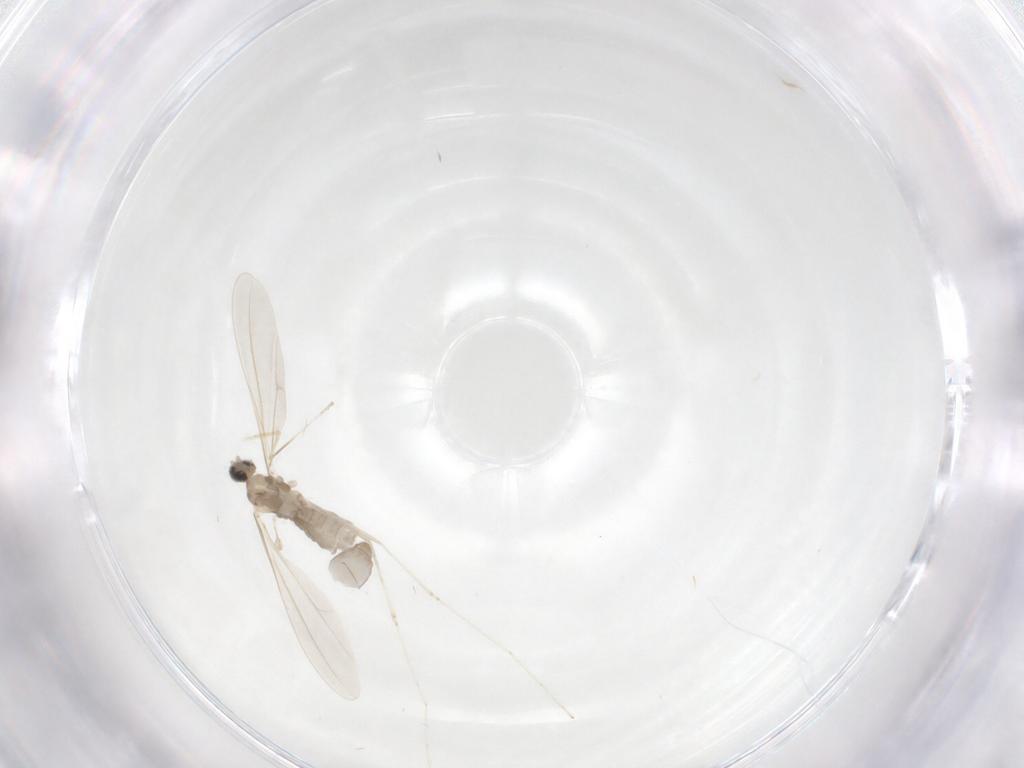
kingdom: Animalia
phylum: Arthropoda
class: Insecta
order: Diptera
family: Cecidomyiidae
